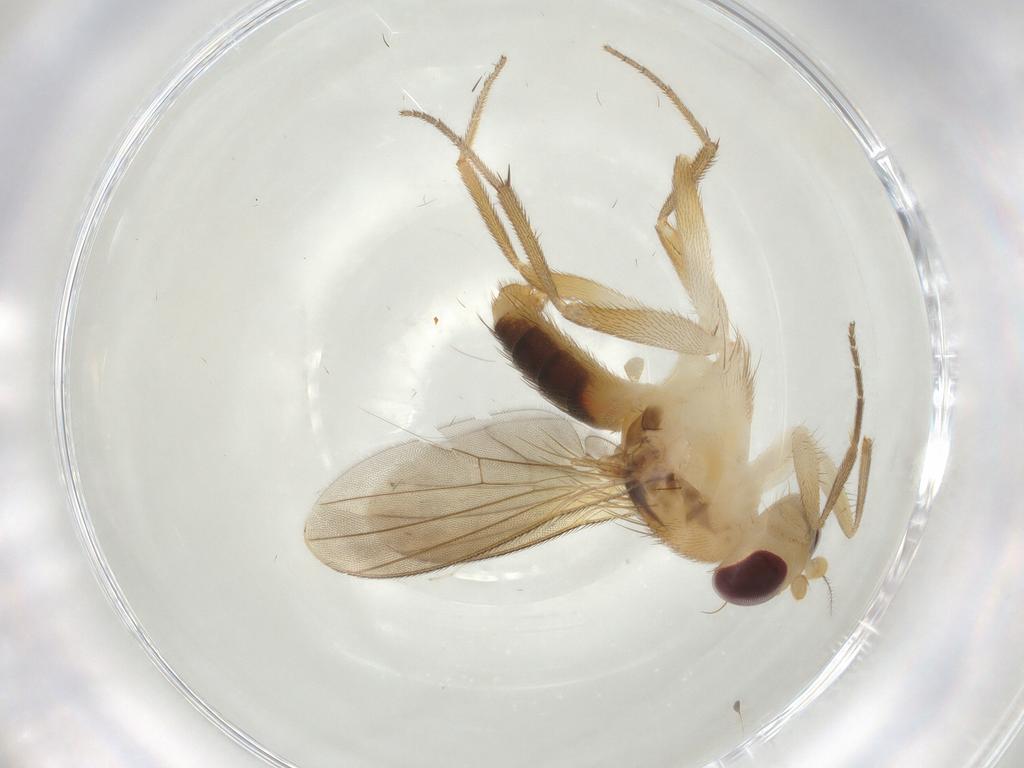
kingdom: Animalia
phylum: Arthropoda
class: Insecta
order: Diptera
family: Agromyzidae
